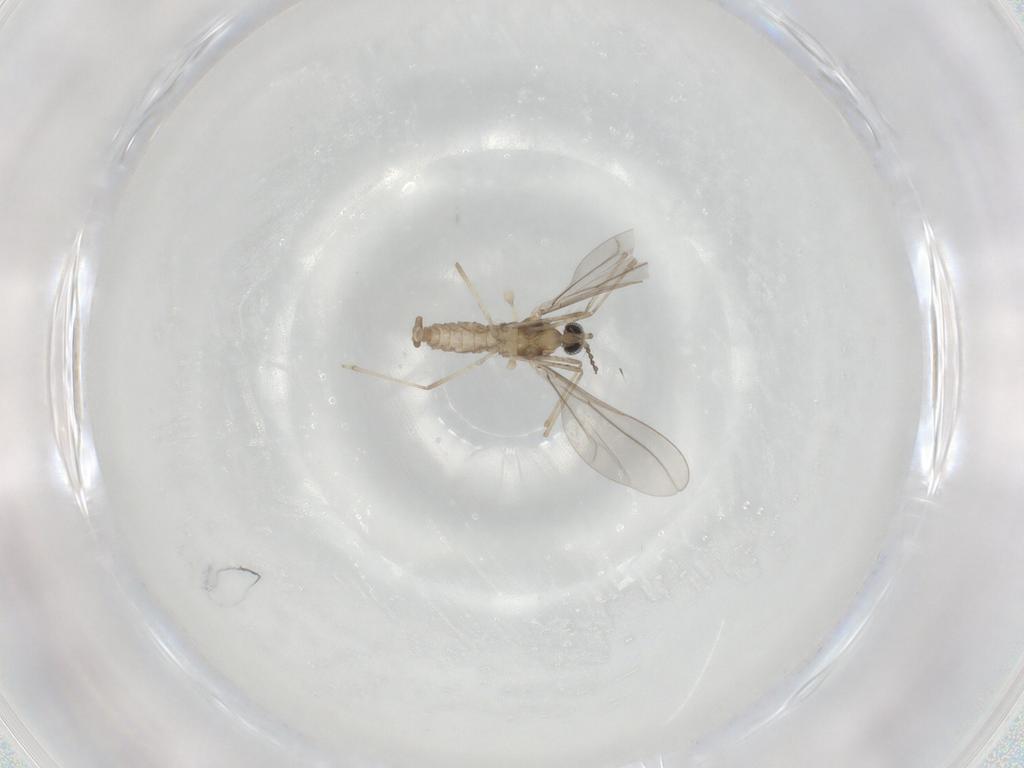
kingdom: Animalia
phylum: Arthropoda
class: Insecta
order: Diptera
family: Cecidomyiidae
